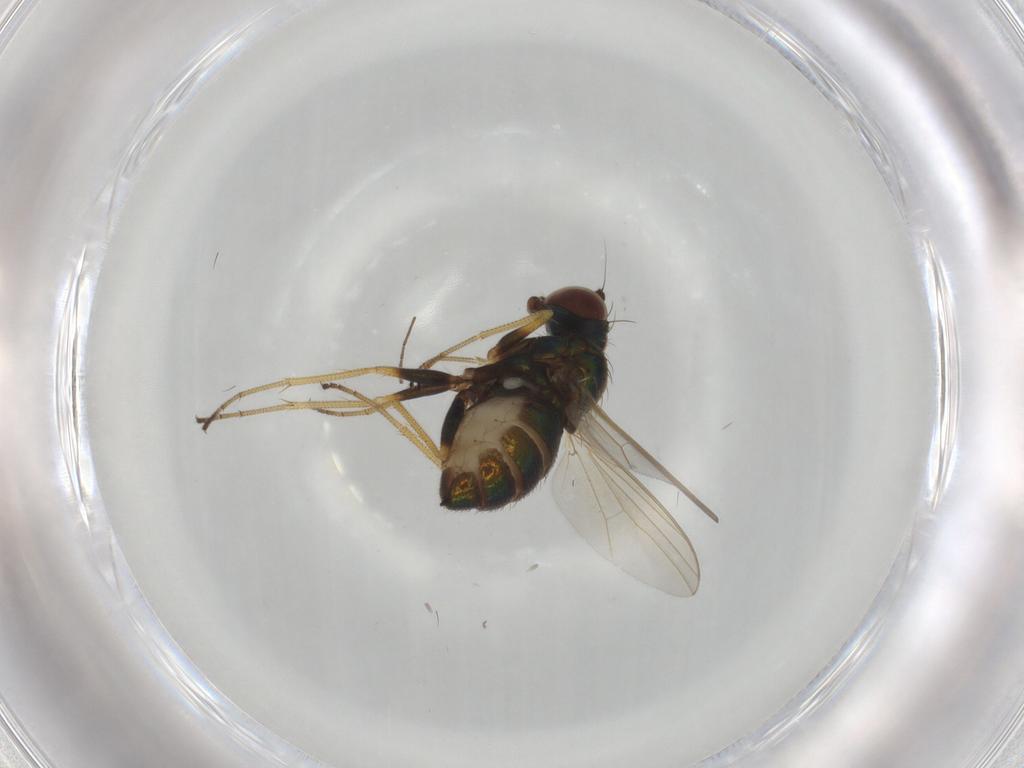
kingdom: Animalia
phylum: Arthropoda
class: Insecta
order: Diptera
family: Dolichopodidae
